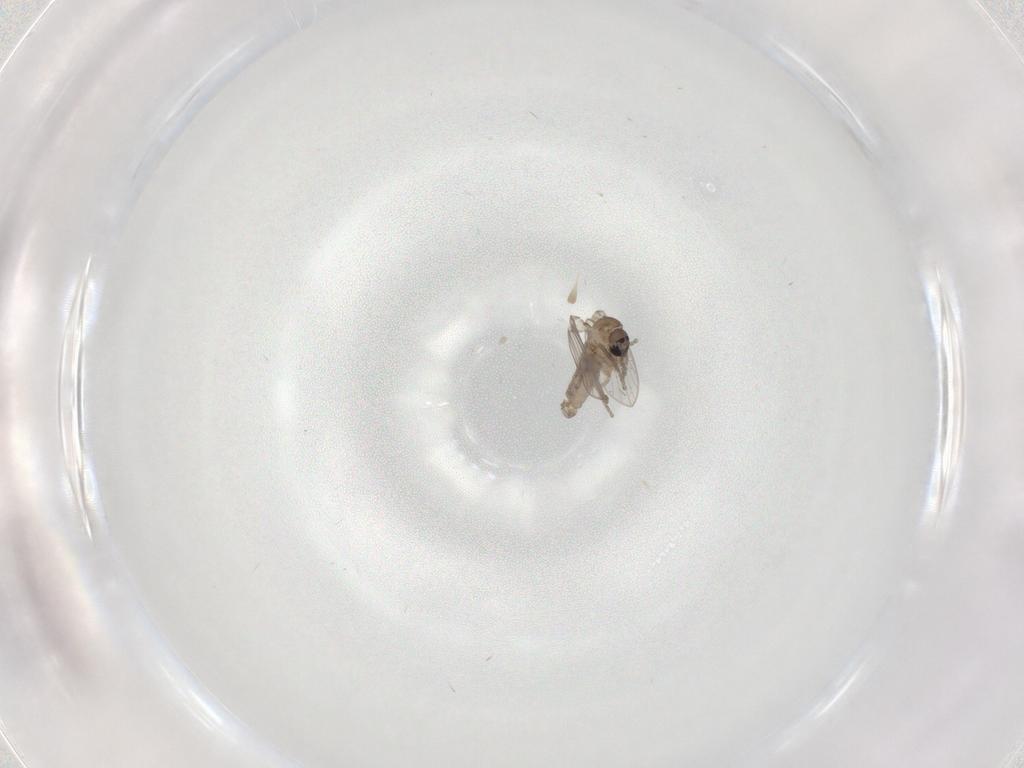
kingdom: Animalia
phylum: Arthropoda
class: Insecta
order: Diptera
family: Psychodidae
